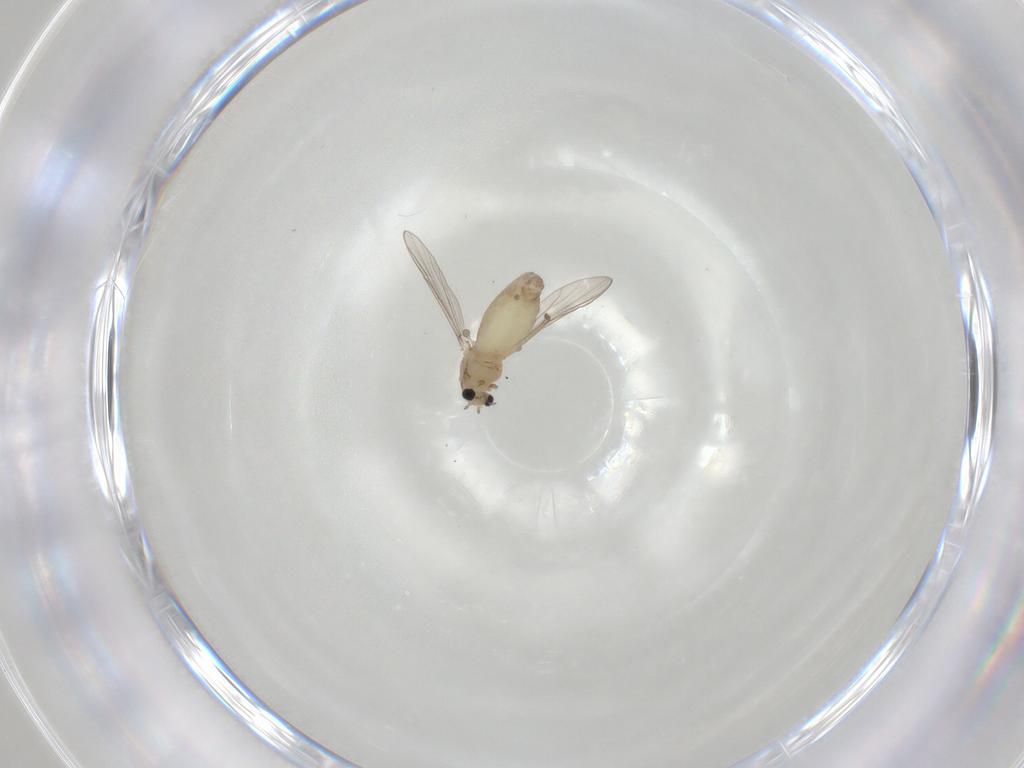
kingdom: Animalia
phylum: Arthropoda
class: Insecta
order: Diptera
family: Chironomidae
